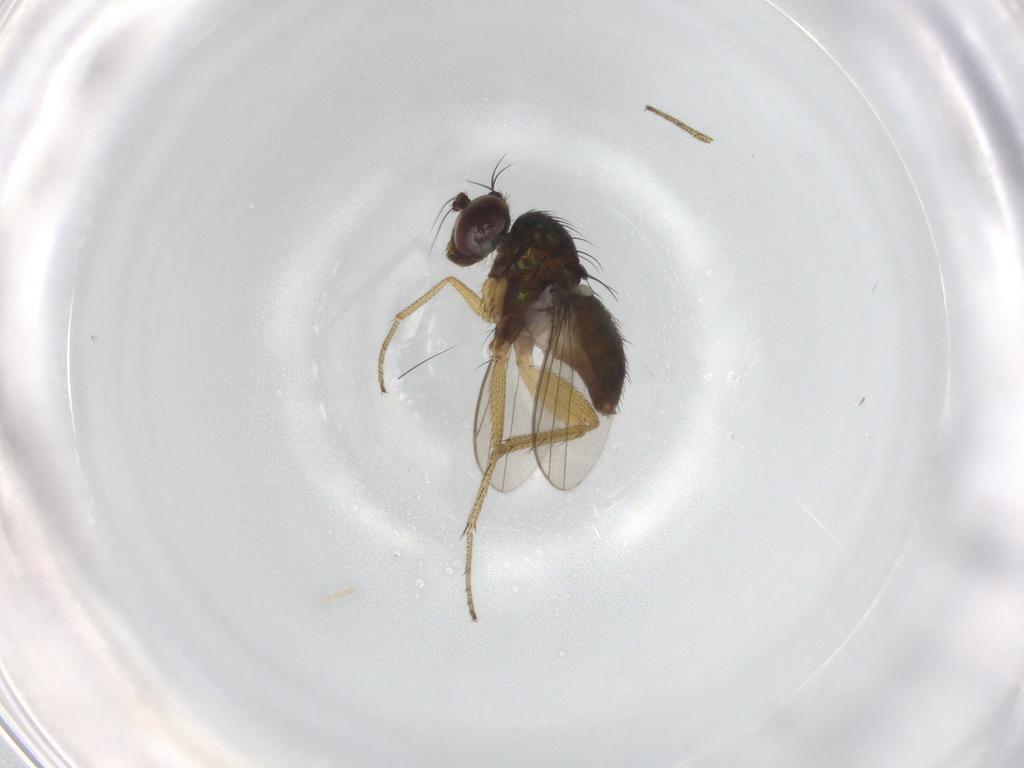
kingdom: Animalia
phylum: Arthropoda
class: Insecta
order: Diptera
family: Dolichopodidae
